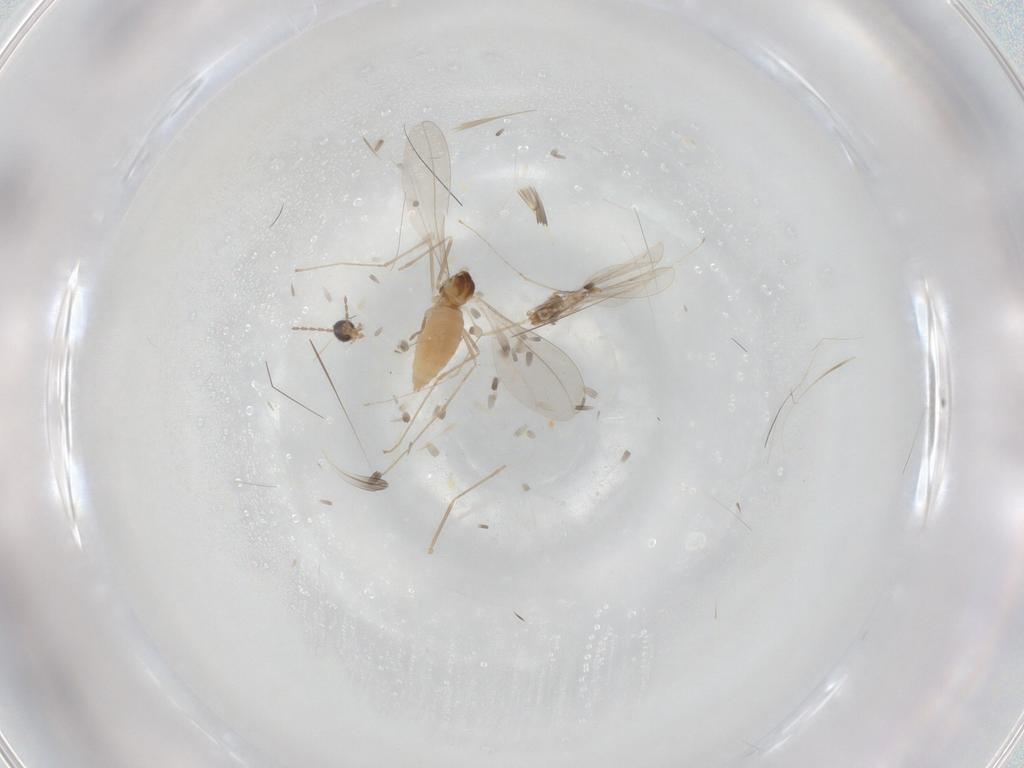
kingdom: Animalia
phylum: Arthropoda
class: Insecta
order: Diptera
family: Cecidomyiidae
